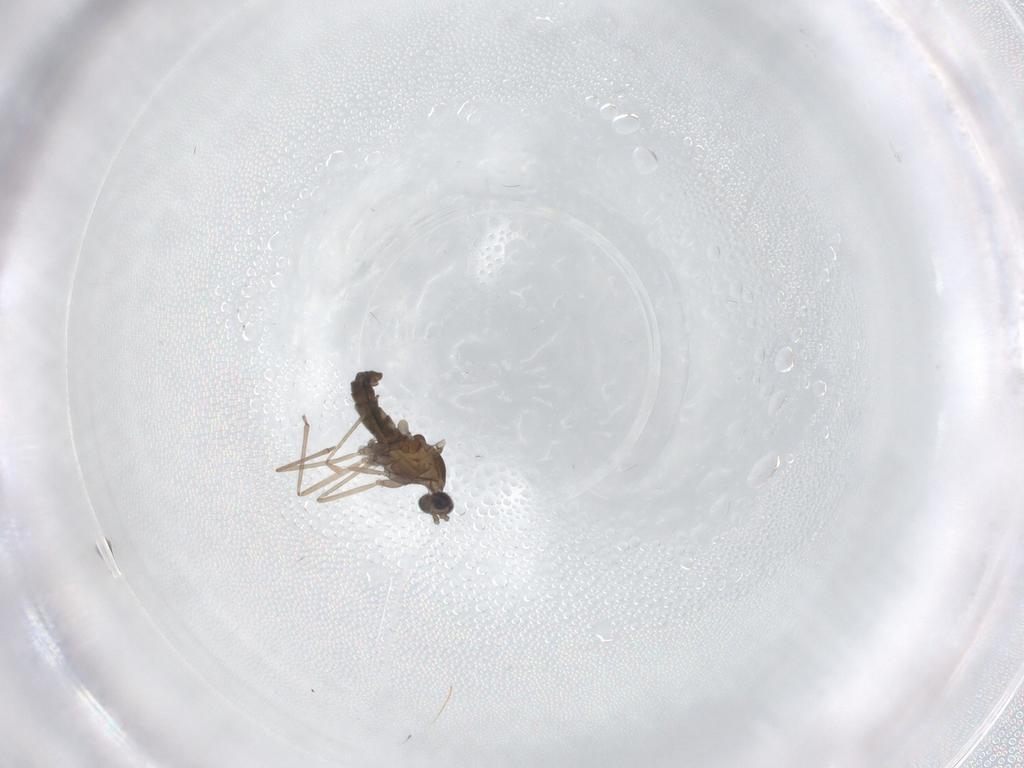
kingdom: Animalia
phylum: Arthropoda
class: Insecta
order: Diptera
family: Cecidomyiidae
